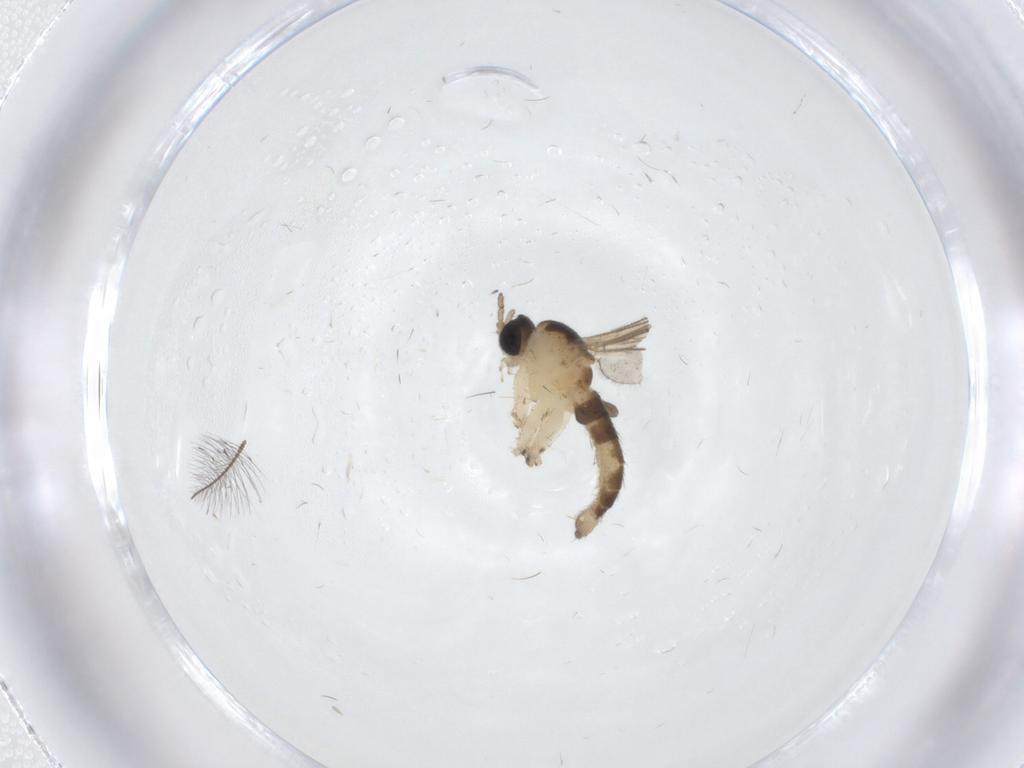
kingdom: Animalia
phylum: Arthropoda
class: Insecta
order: Diptera
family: Sciaridae
